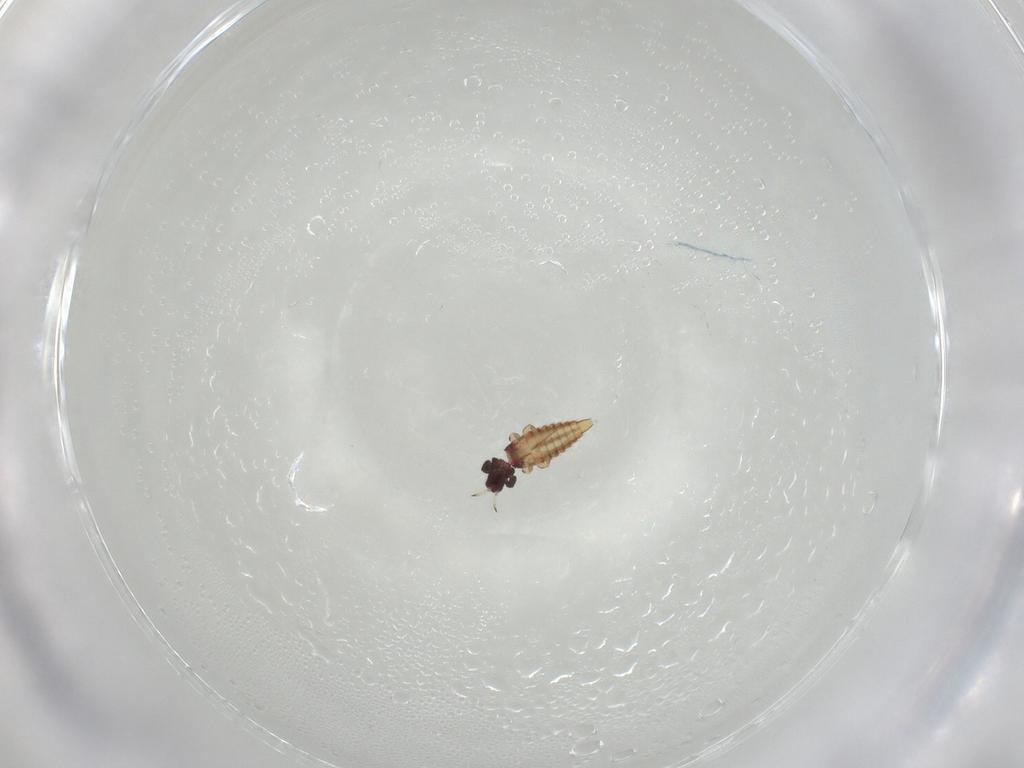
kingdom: Animalia
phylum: Arthropoda
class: Insecta
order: Thysanoptera
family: Phlaeothripidae
